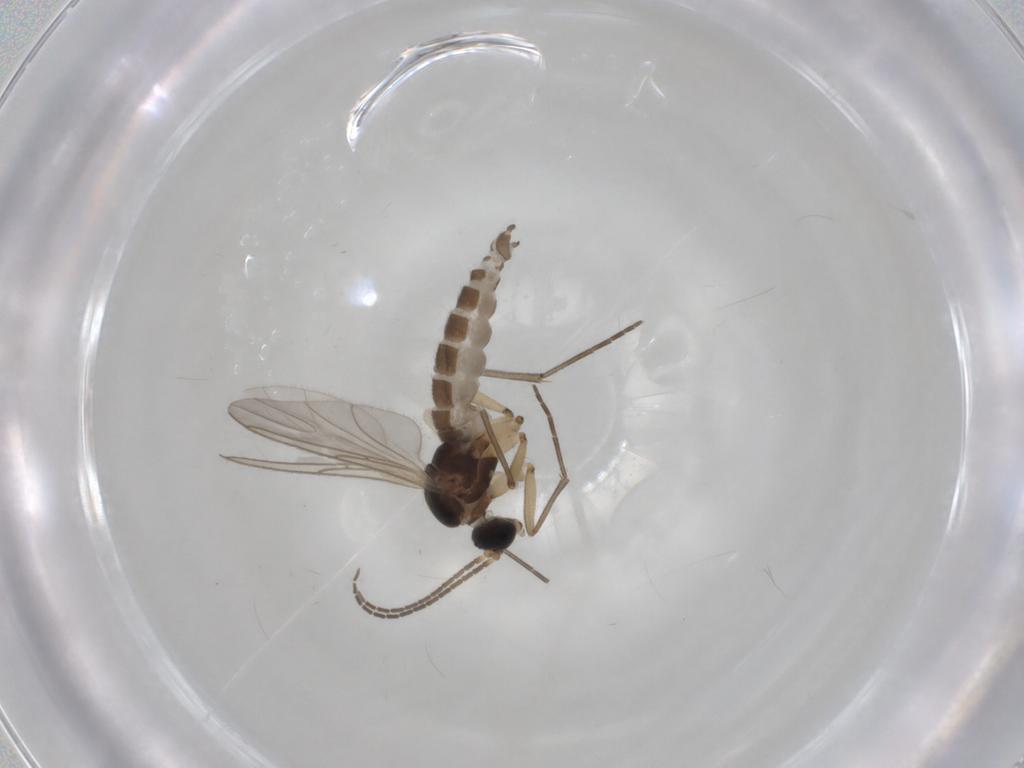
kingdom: Animalia
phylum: Arthropoda
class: Insecta
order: Diptera
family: Sciaridae
